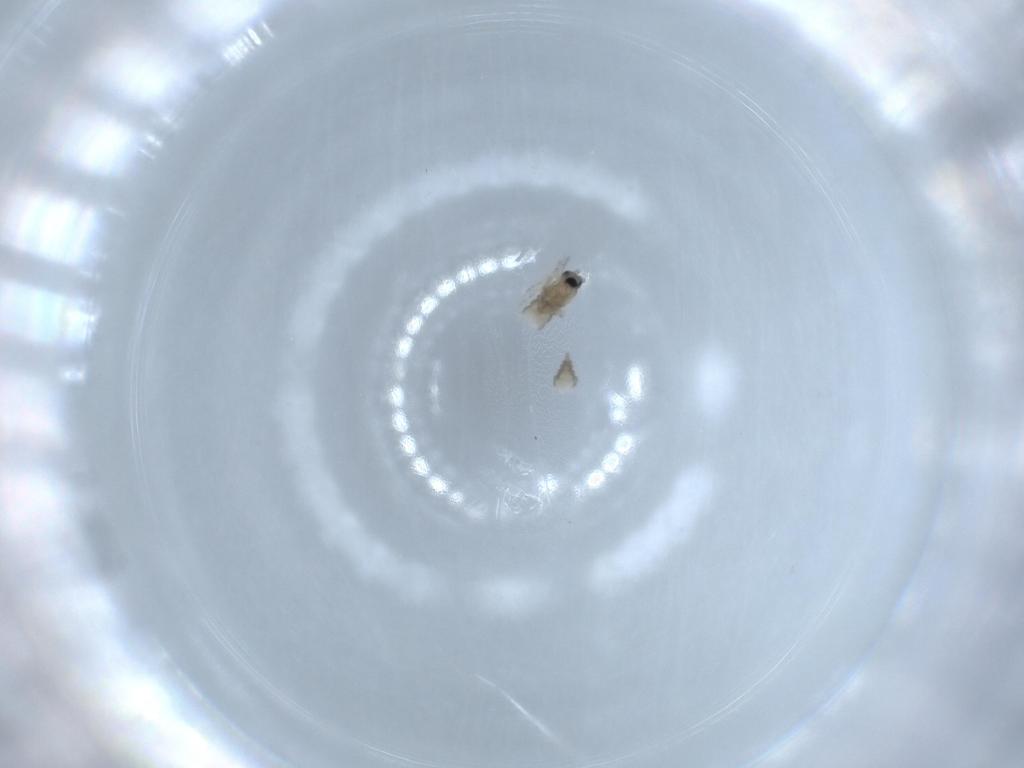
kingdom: Animalia
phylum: Arthropoda
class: Insecta
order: Diptera
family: Cecidomyiidae
